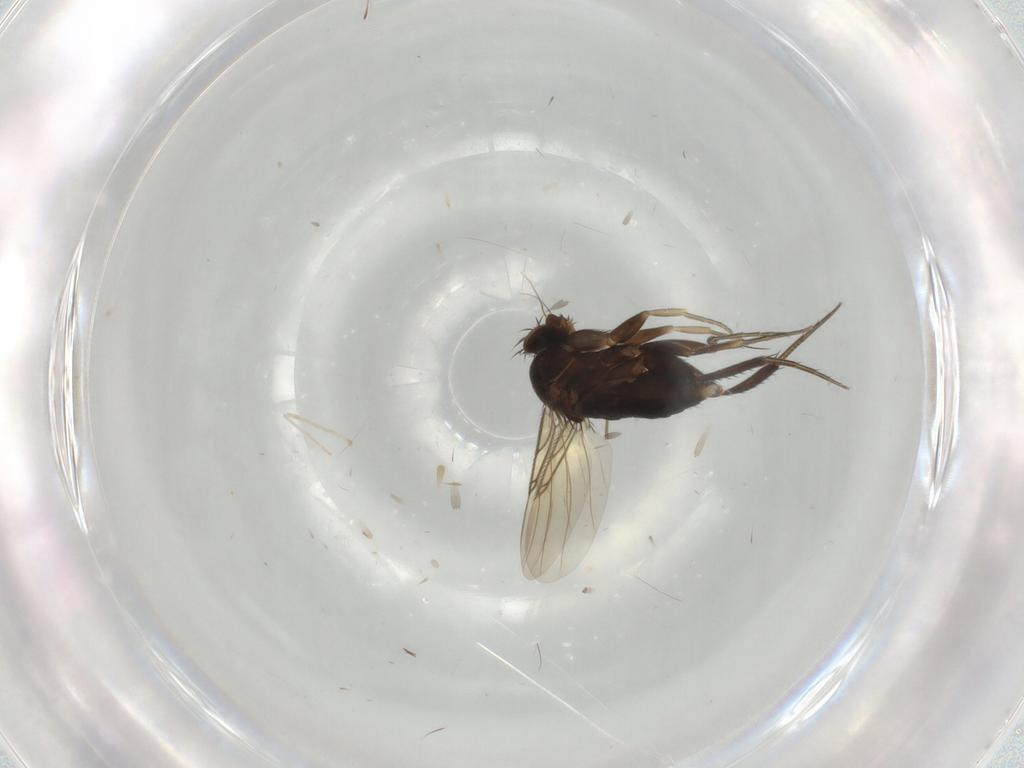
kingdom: Animalia
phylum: Arthropoda
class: Insecta
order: Diptera
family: Phoridae
